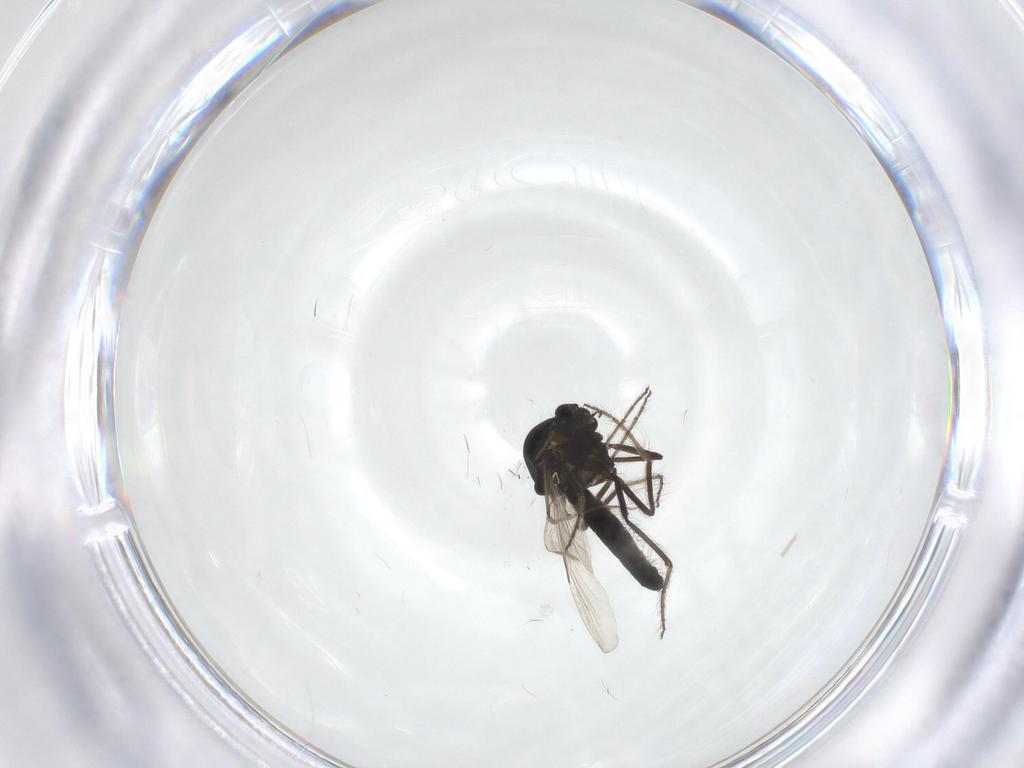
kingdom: Animalia
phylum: Arthropoda
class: Insecta
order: Diptera
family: Ceratopogonidae
